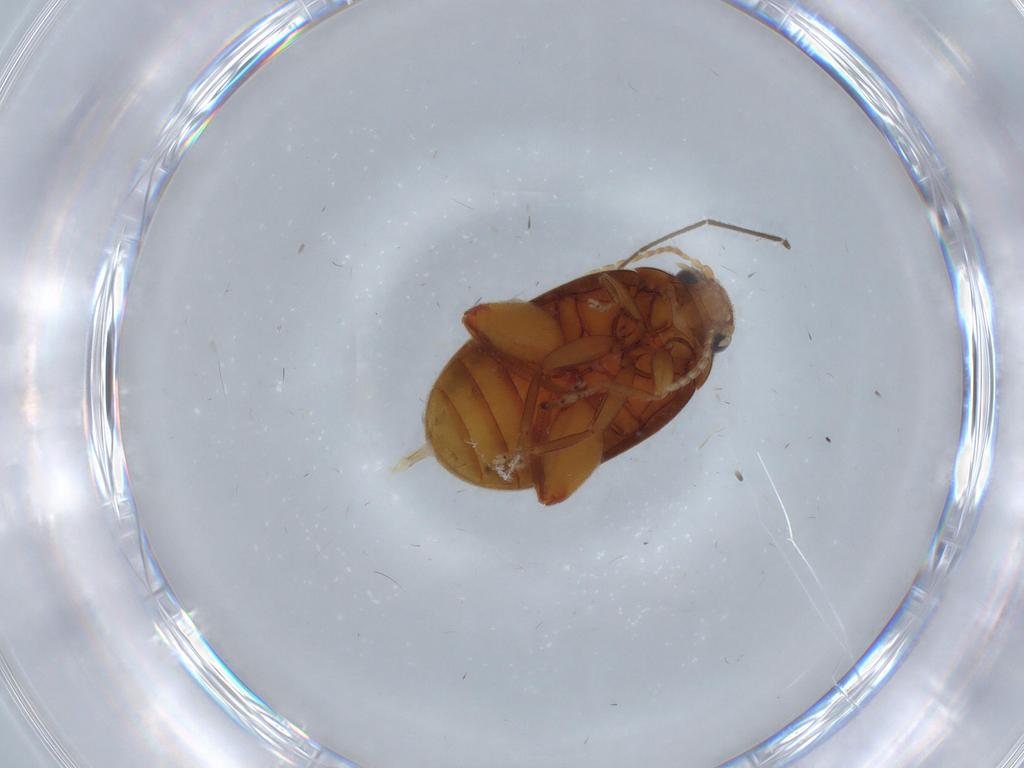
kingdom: Animalia
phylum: Arthropoda
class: Insecta
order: Coleoptera
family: Scirtidae
